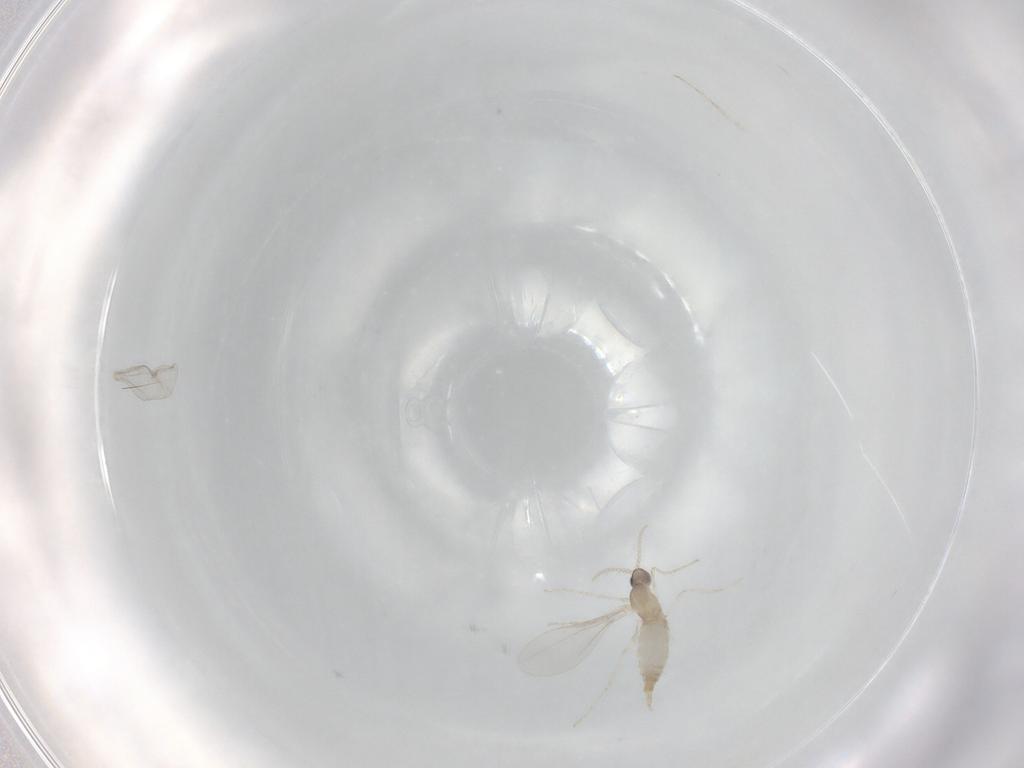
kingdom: Animalia
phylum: Arthropoda
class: Insecta
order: Diptera
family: Cecidomyiidae
